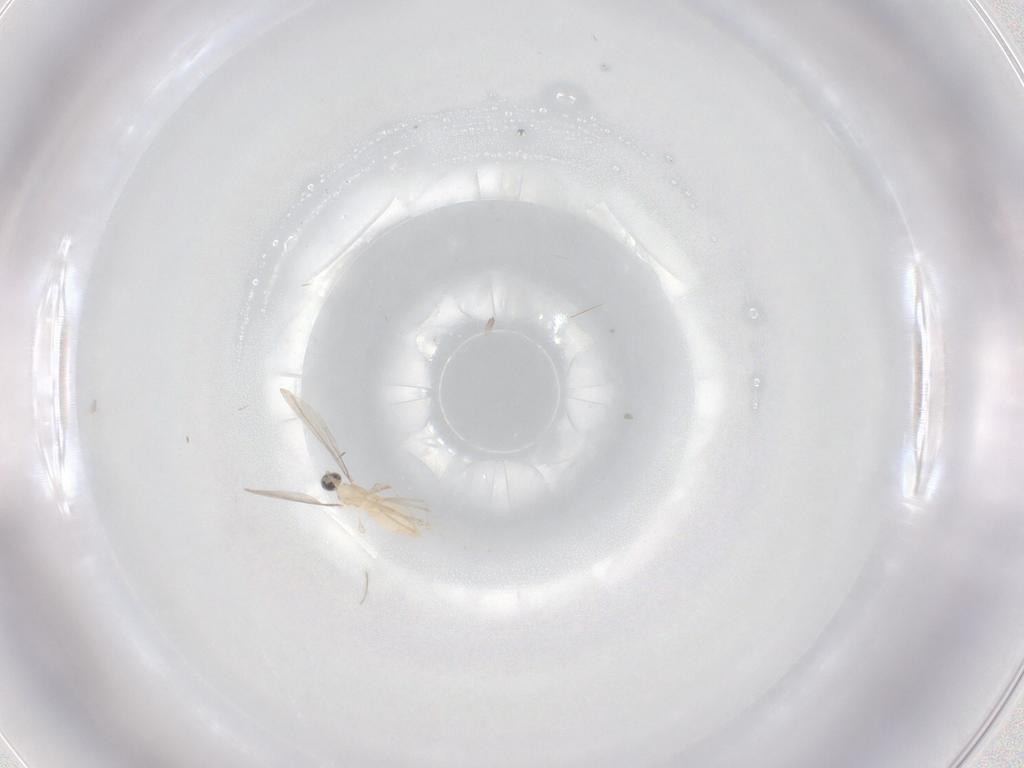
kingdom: Animalia
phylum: Arthropoda
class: Insecta
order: Diptera
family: Cecidomyiidae
